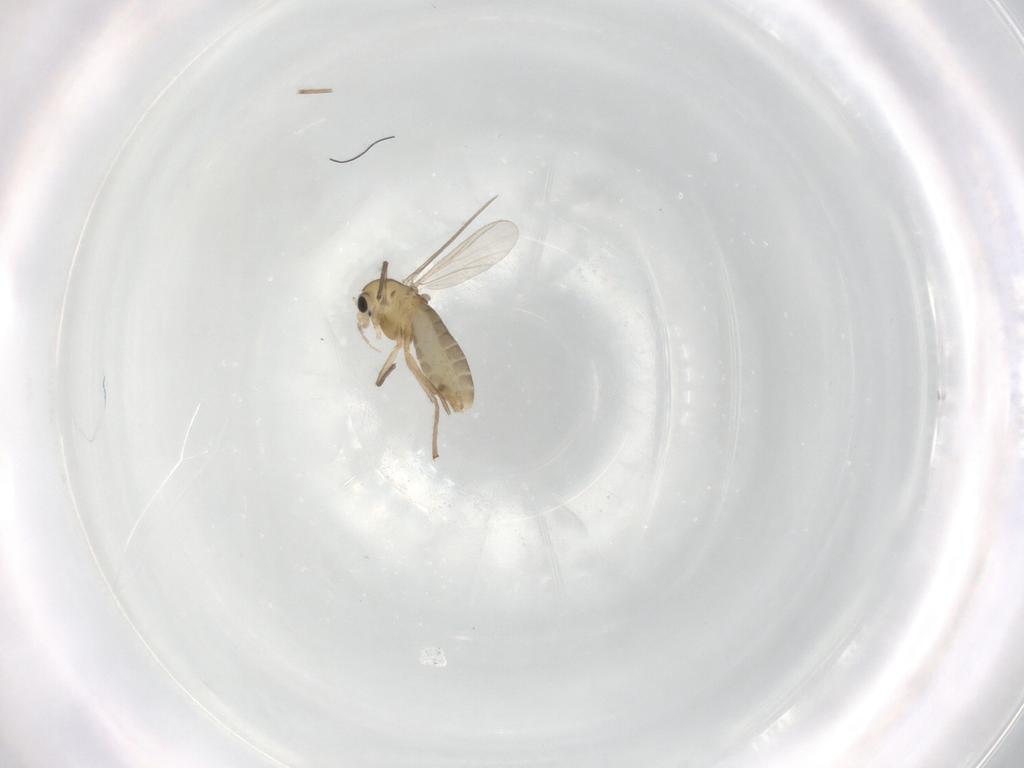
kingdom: Animalia
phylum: Arthropoda
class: Insecta
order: Diptera
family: Chironomidae
